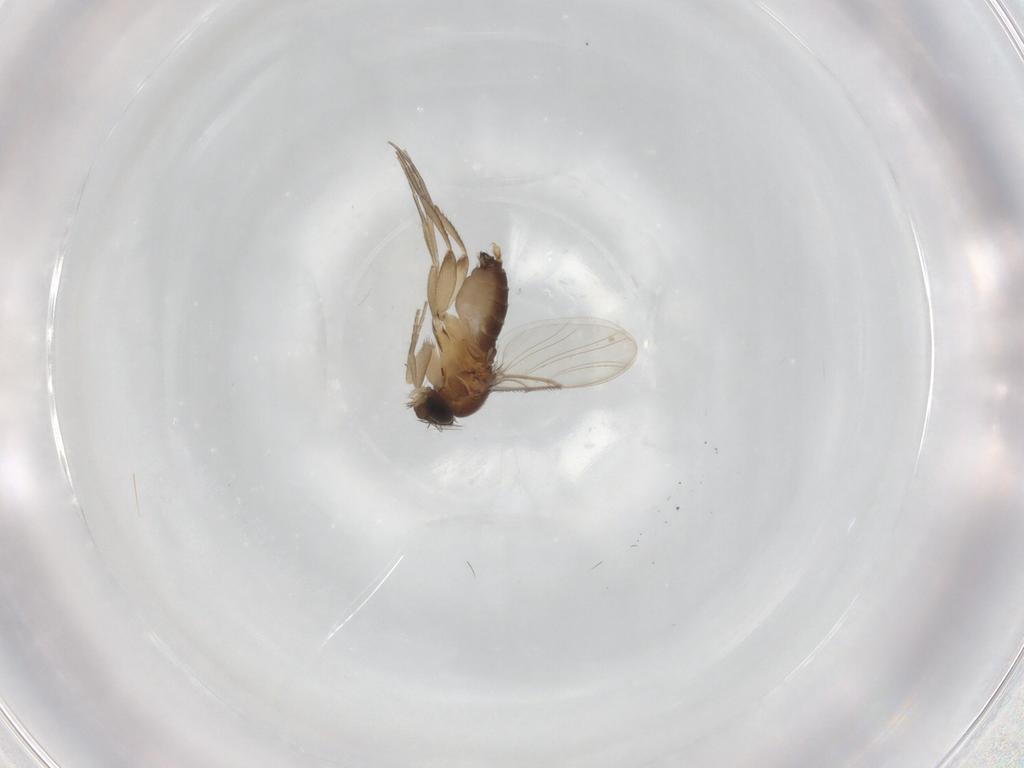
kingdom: Animalia
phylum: Arthropoda
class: Insecta
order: Diptera
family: Phoridae
